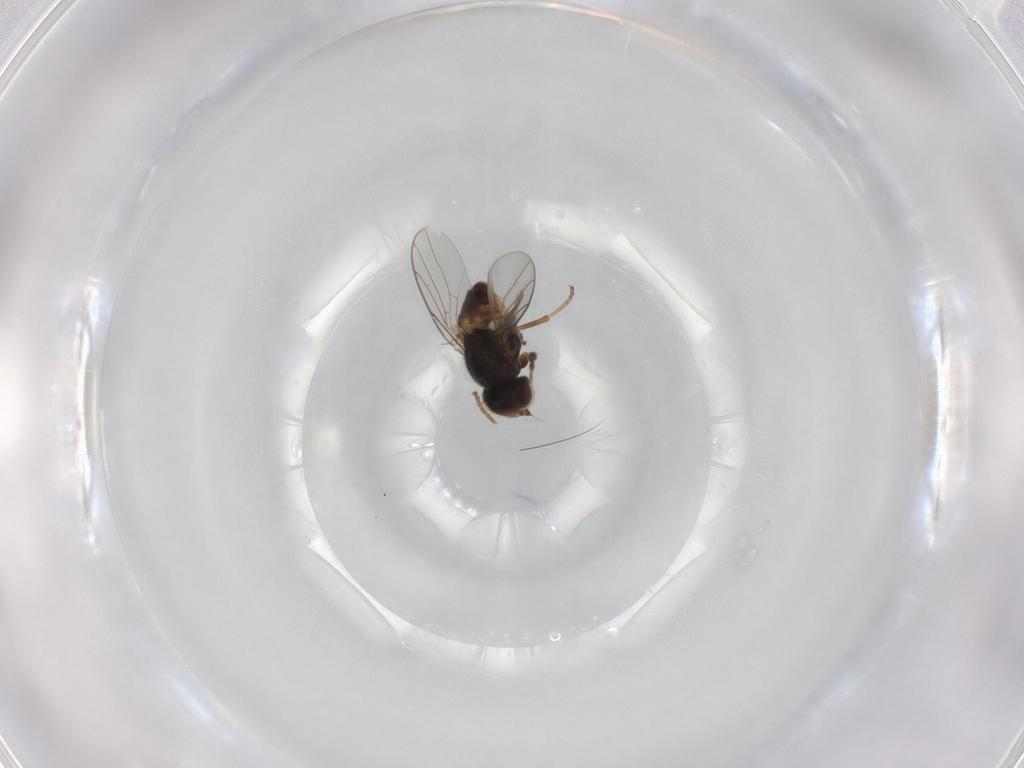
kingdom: Animalia
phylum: Arthropoda
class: Insecta
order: Diptera
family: Chloropidae
